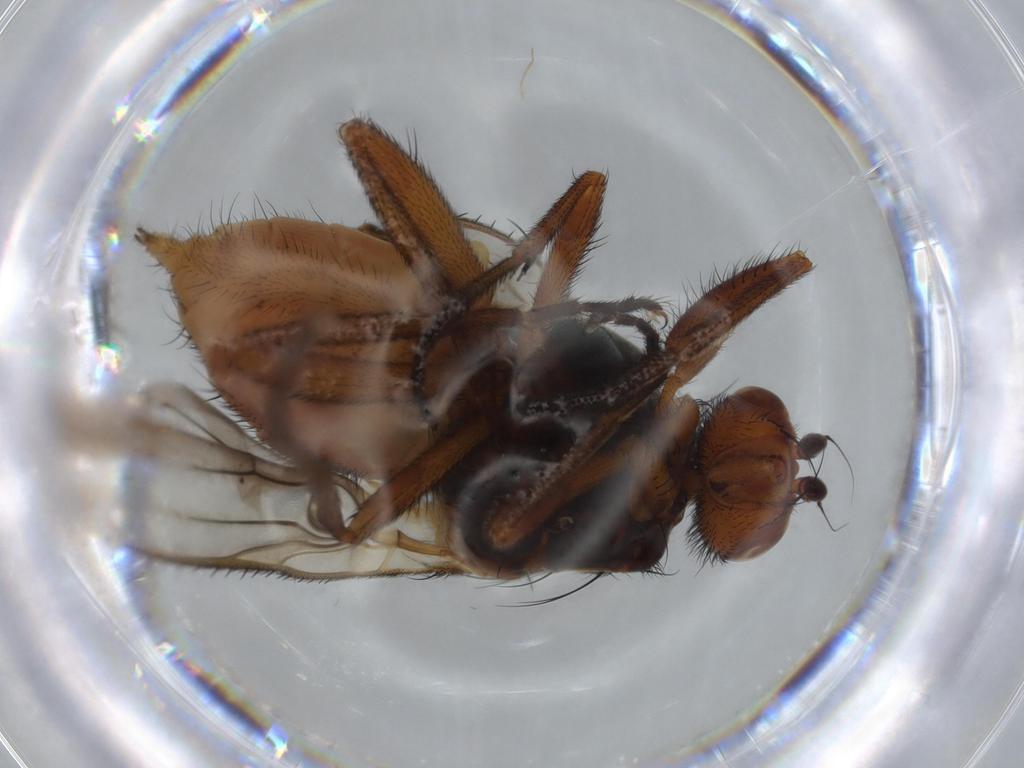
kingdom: Animalia
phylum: Arthropoda
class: Insecta
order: Diptera
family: Heleomyzidae
